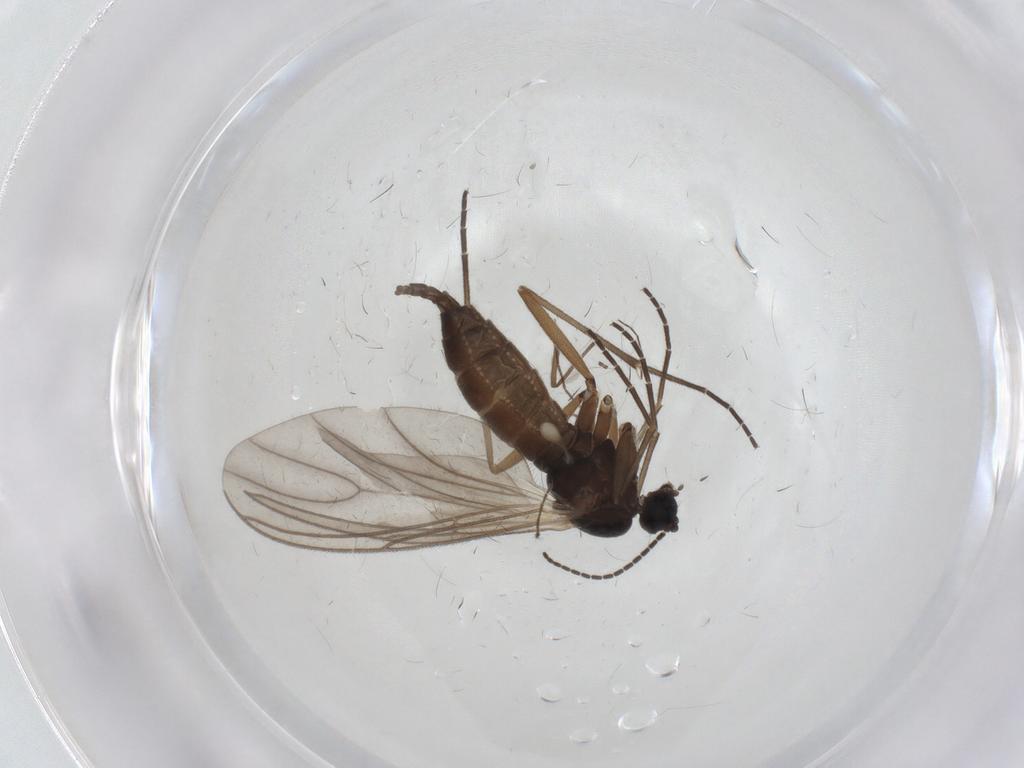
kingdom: Animalia
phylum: Arthropoda
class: Insecta
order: Diptera
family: Sciaridae
